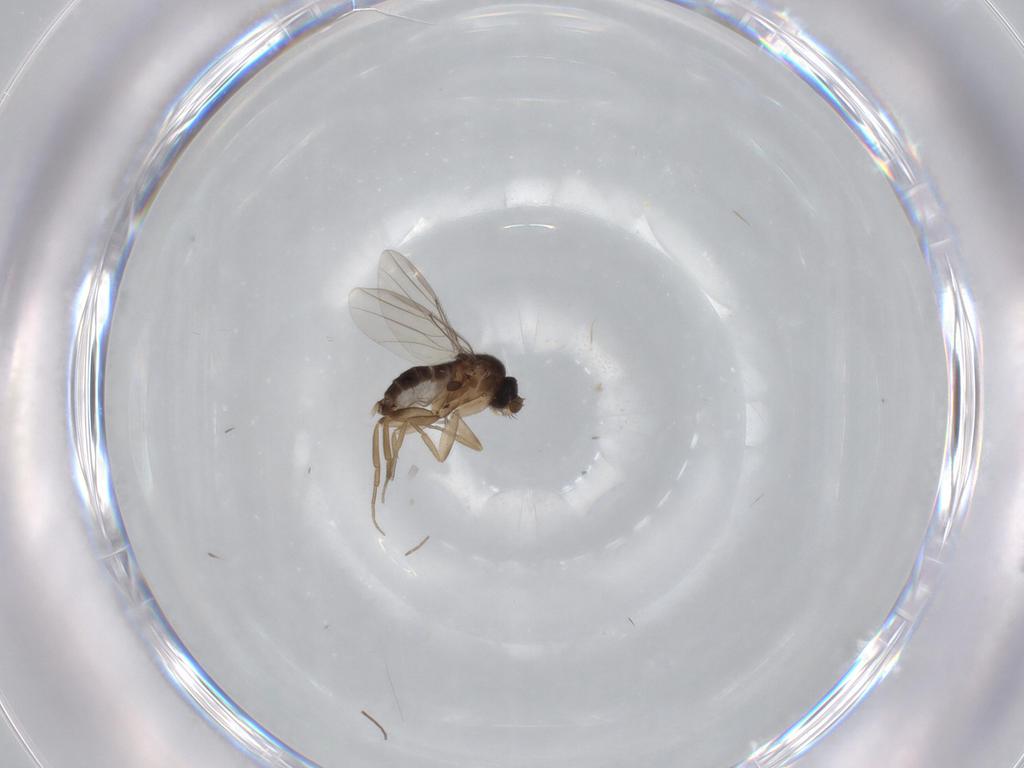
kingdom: Animalia
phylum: Arthropoda
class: Insecta
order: Diptera
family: Phoridae
